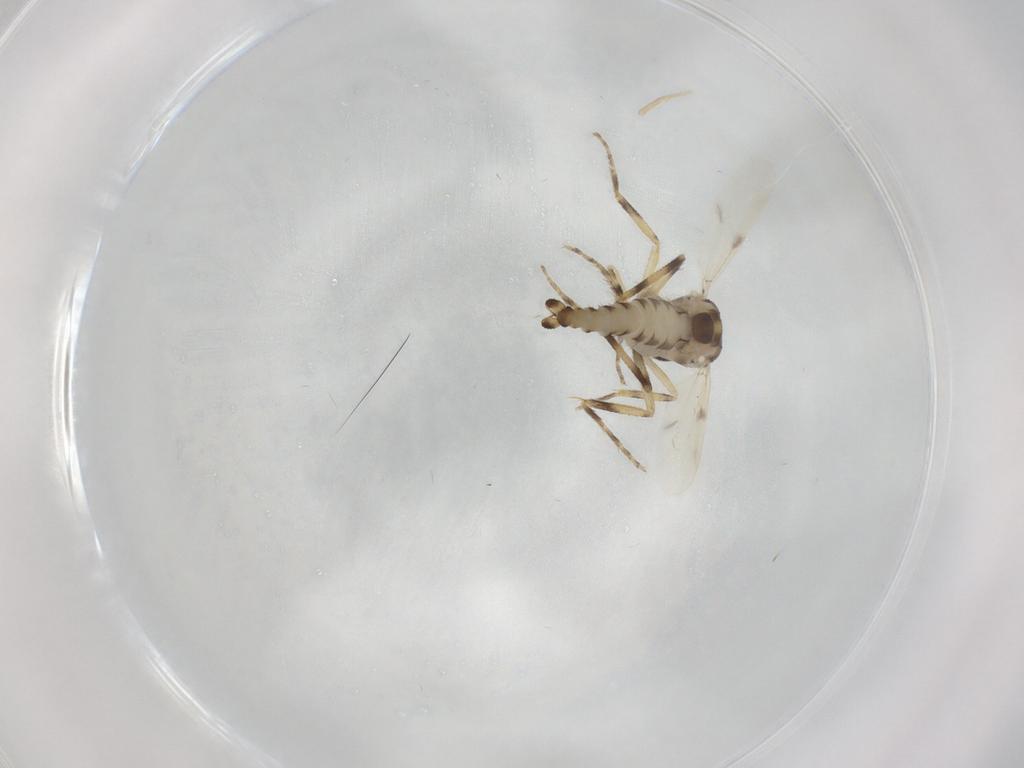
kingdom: Animalia
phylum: Arthropoda
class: Insecta
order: Diptera
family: Ceratopogonidae
